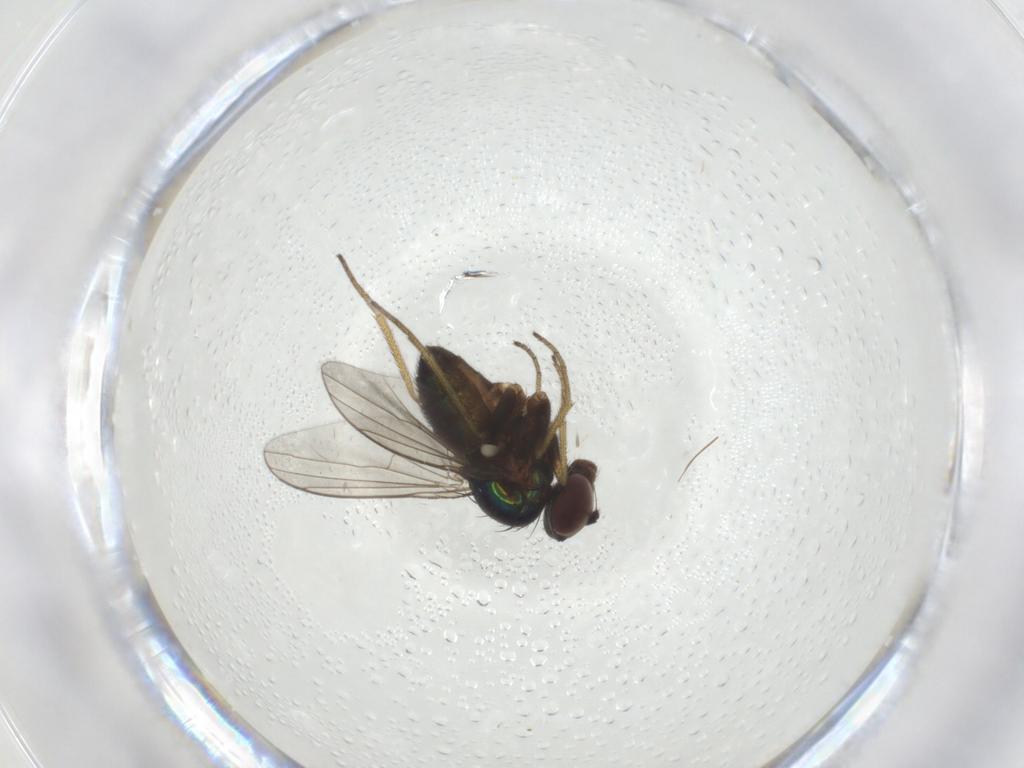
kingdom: Animalia
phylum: Arthropoda
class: Insecta
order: Diptera
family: Dolichopodidae
